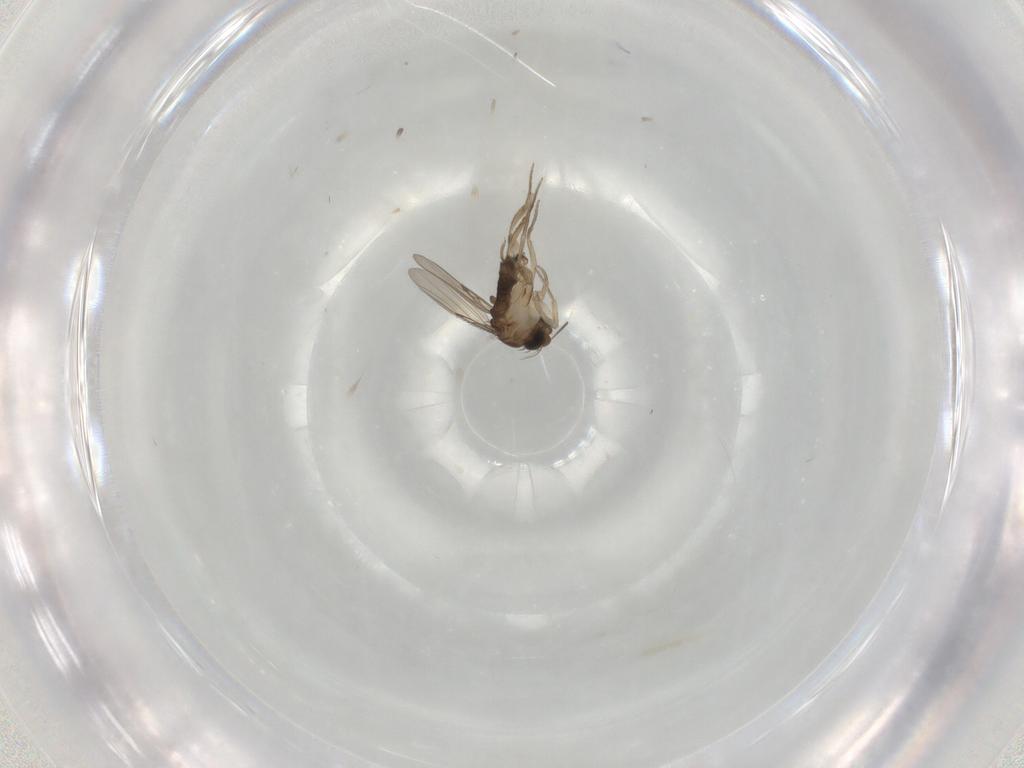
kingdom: Animalia
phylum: Arthropoda
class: Insecta
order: Diptera
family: Phoridae
